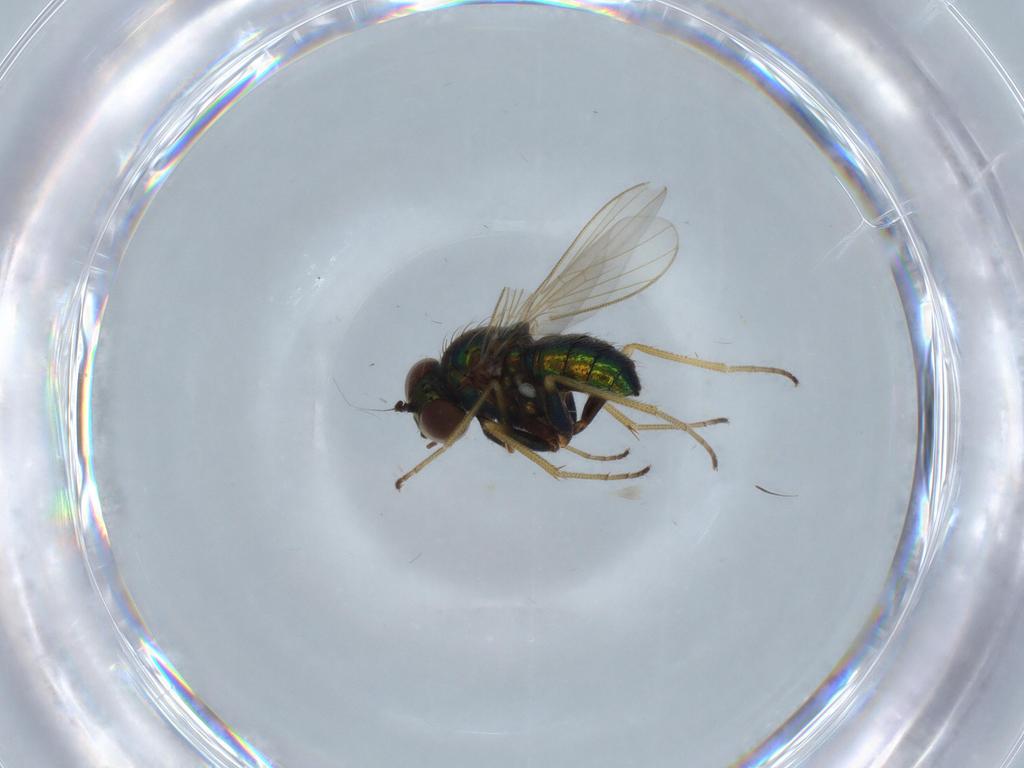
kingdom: Animalia
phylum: Arthropoda
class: Insecta
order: Diptera
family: Dolichopodidae
